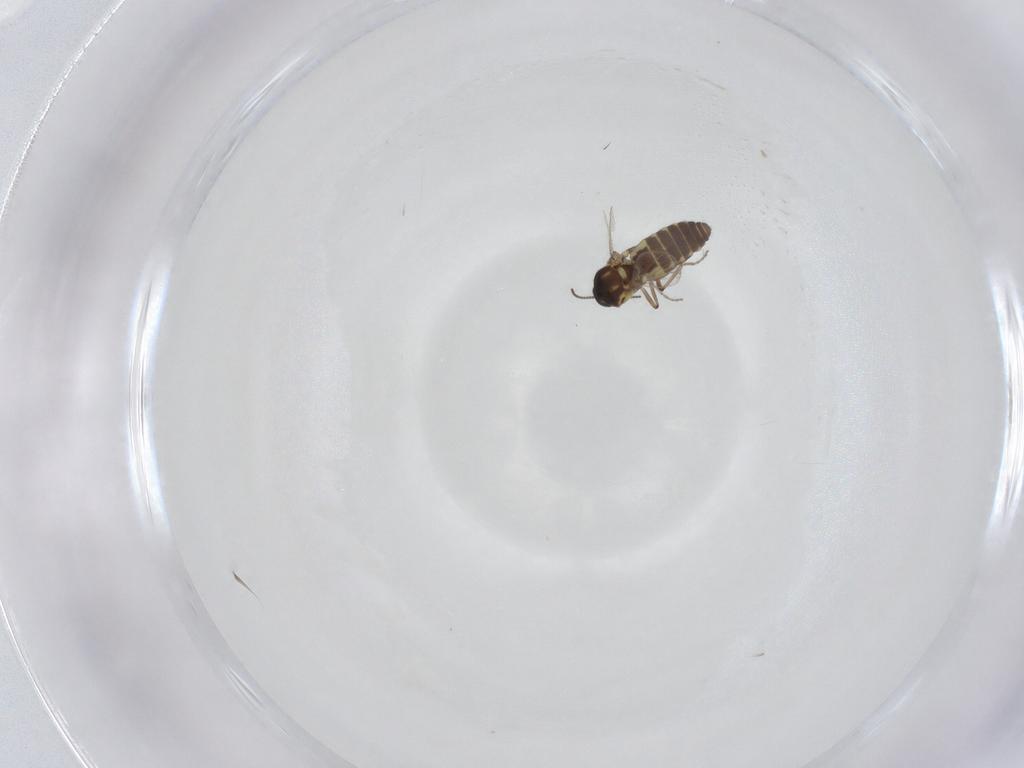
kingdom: Animalia
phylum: Arthropoda
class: Insecta
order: Diptera
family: Ceratopogonidae
